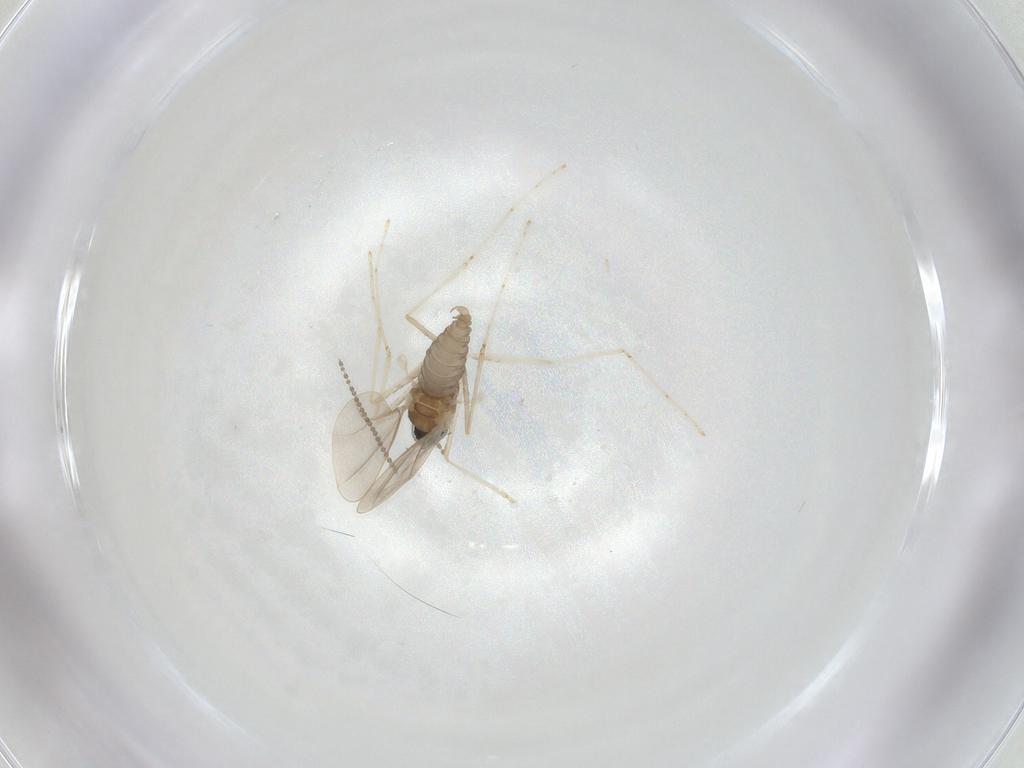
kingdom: Animalia
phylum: Arthropoda
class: Insecta
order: Diptera
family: Cecidomyiidae
